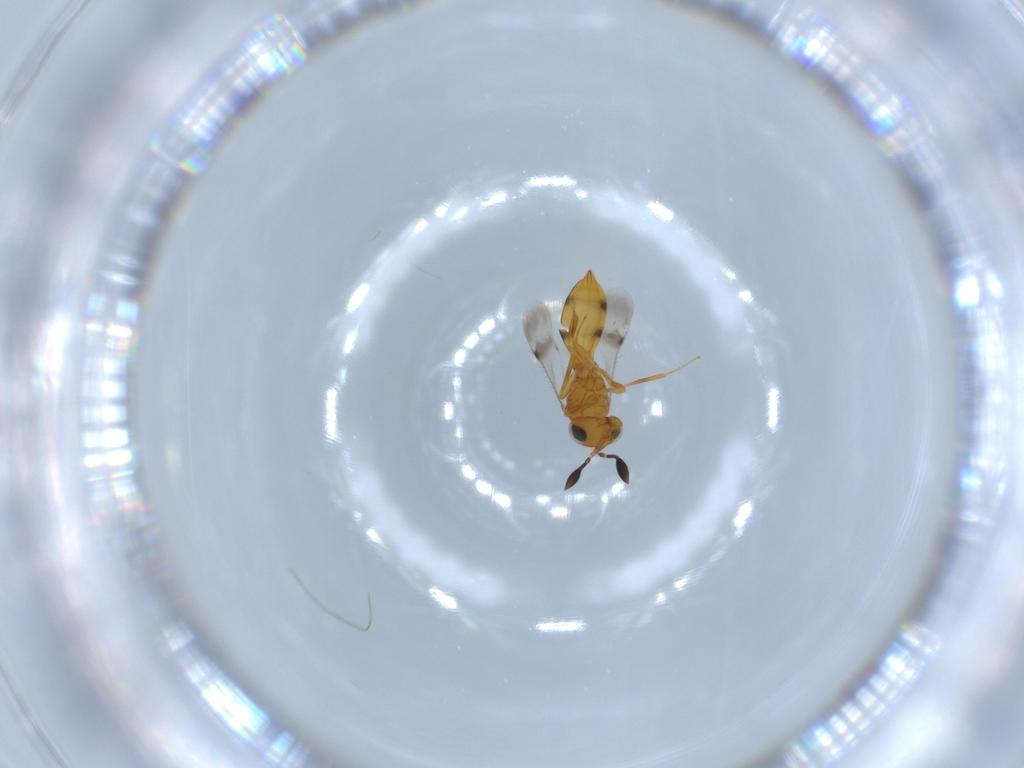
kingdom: Animalia
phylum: Arthropoda
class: Insecta
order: Hymenoptera
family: Scelionidae
